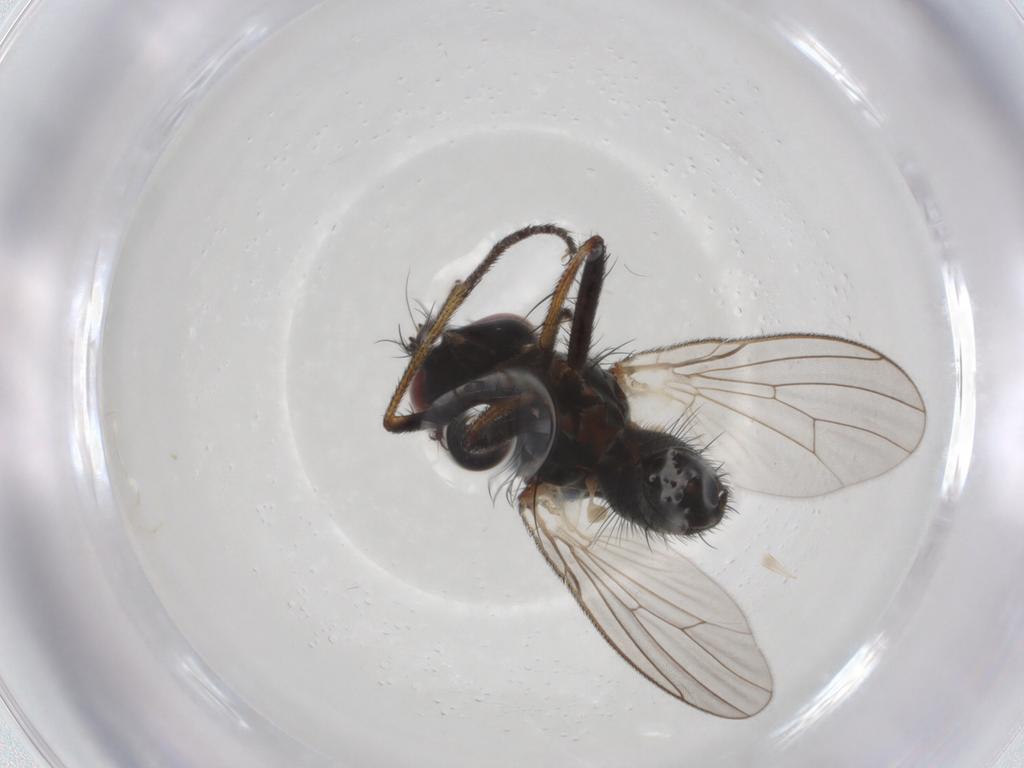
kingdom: Animalia
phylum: Arthropoda
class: Insecta
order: Diptera
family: Muscidae
